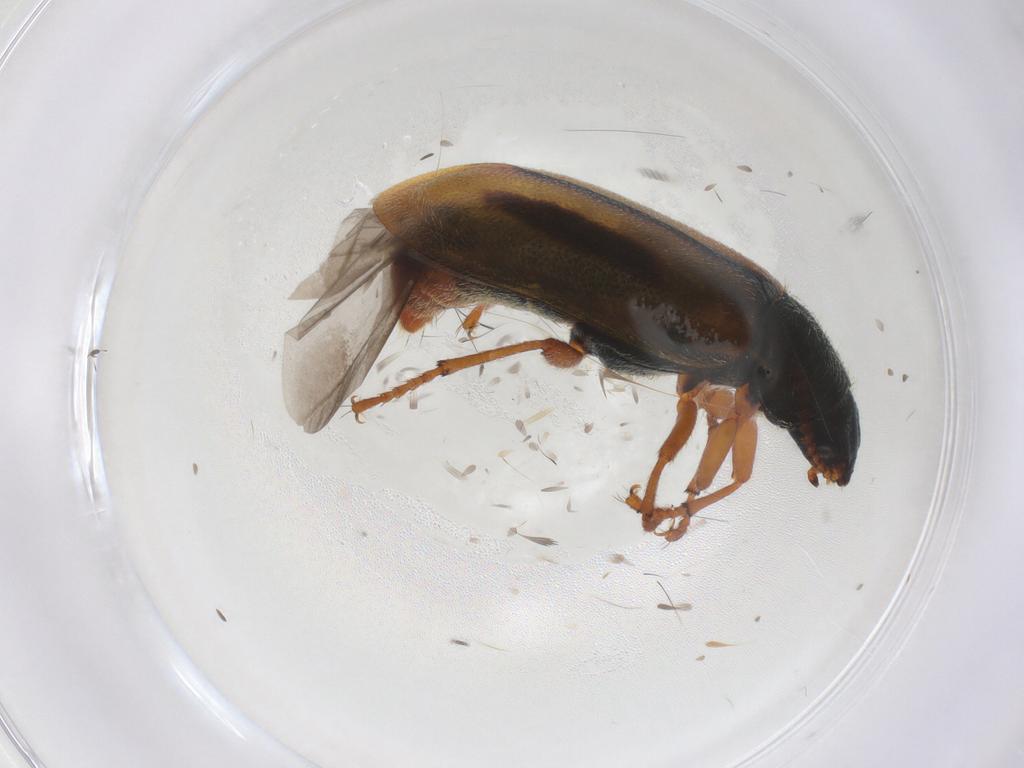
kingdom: Animalia
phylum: Arthropoda
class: Insecta
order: Coleoptera
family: Melyridae
